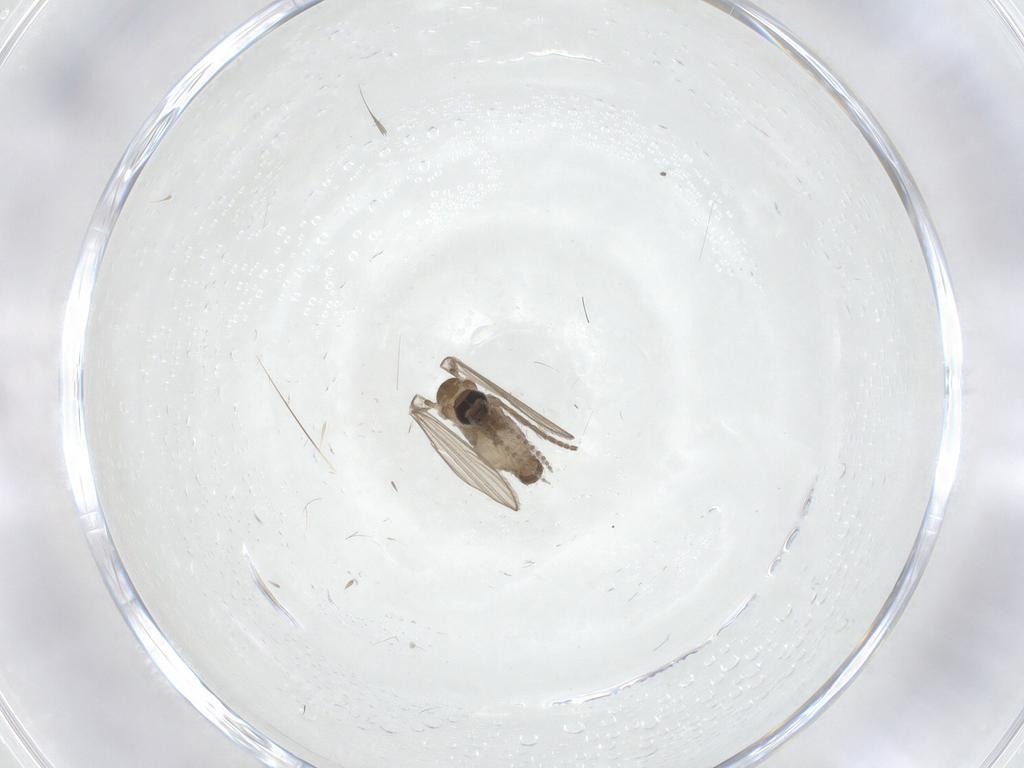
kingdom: Animalia
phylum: Arthropoda
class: Insecta
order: Diptera
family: Psychodidae
